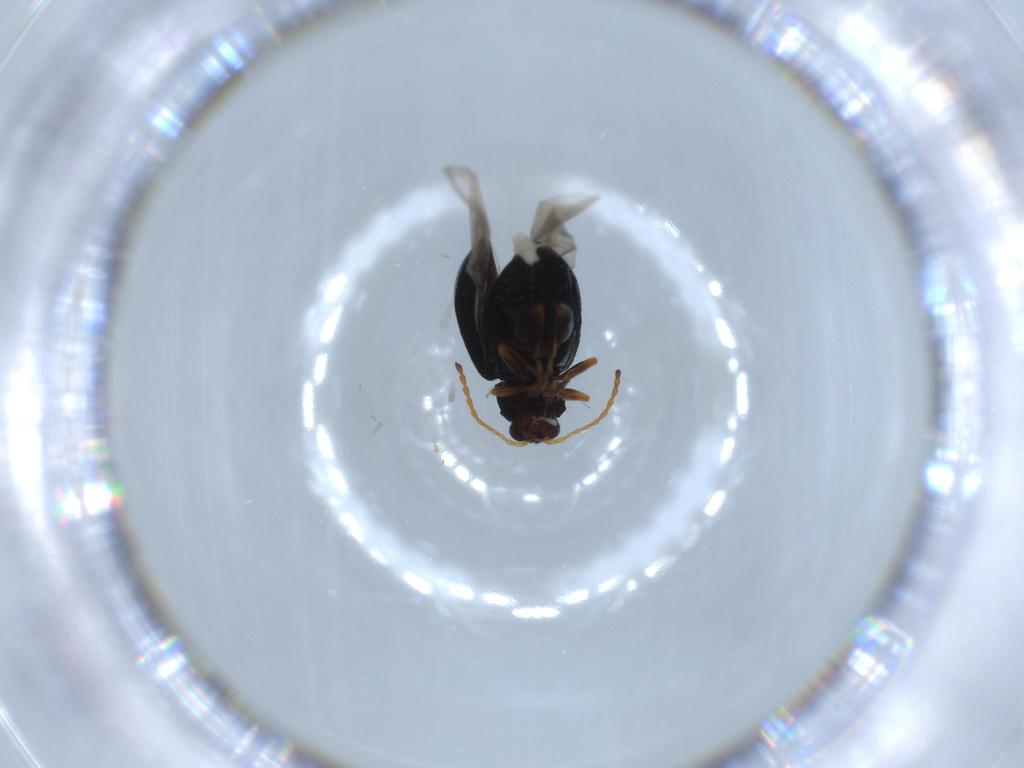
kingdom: Animalia
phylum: Arthropoda
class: Insecta
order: Coleoptera
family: Chrysomelidae
